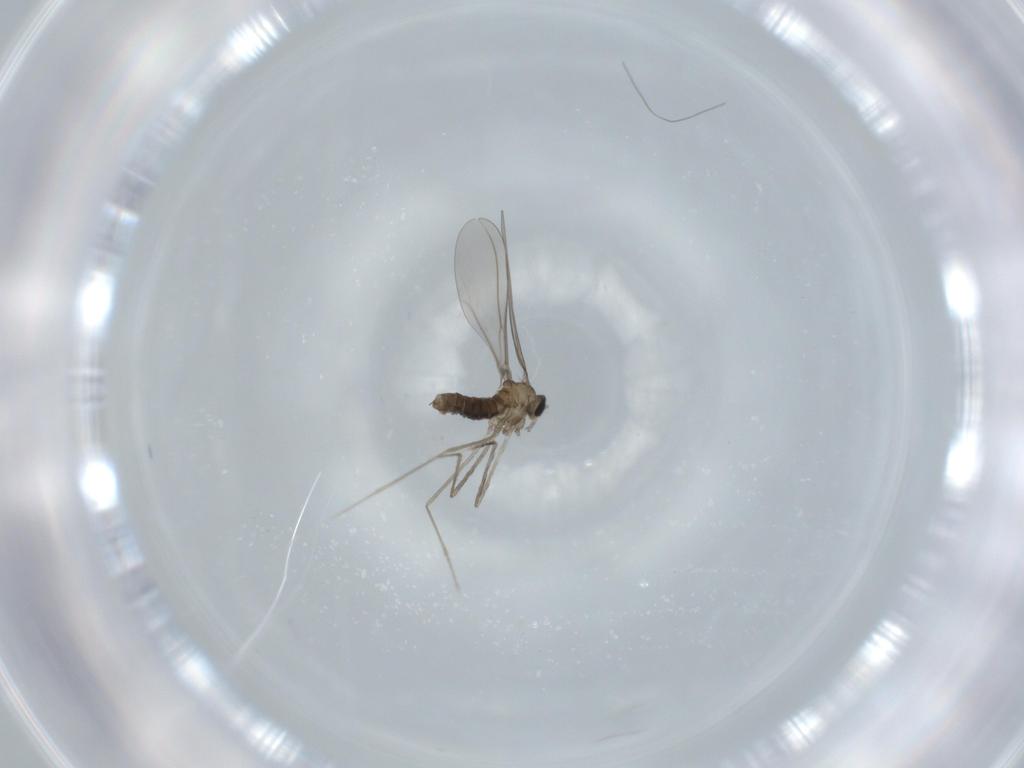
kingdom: Animalia
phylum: Arthropoda
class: Insecta
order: Diptera
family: Cecidomyiidae
